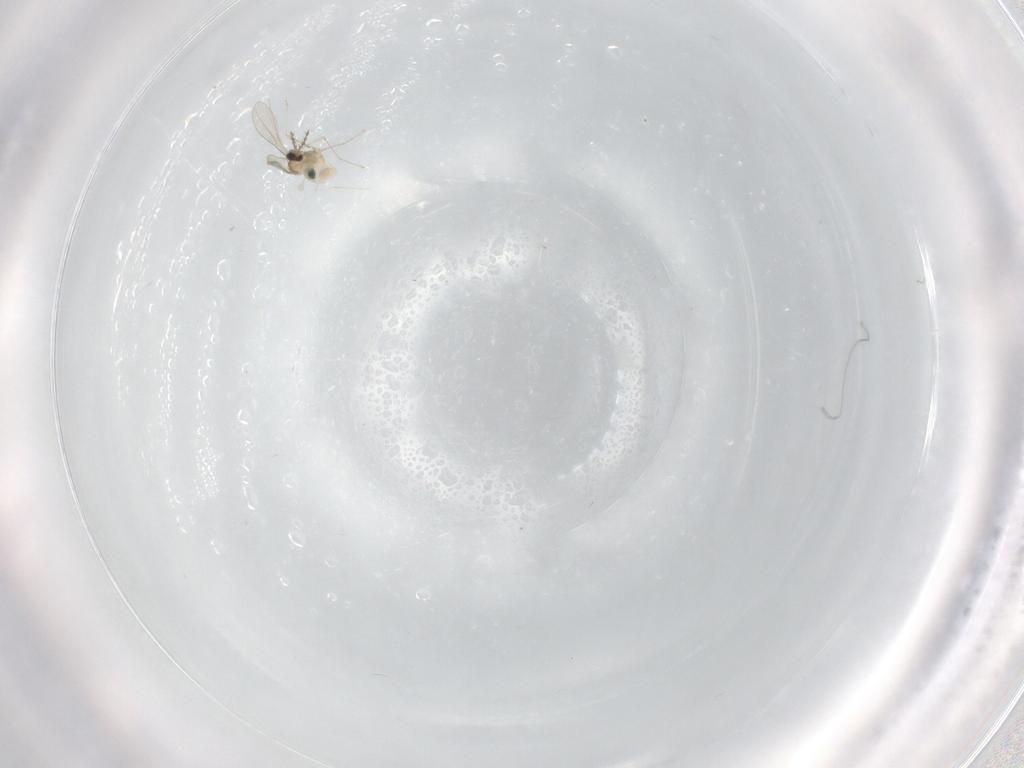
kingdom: Animalia
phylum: Arthropoda
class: Insecta
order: Diptera
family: Cecidomyiidae
